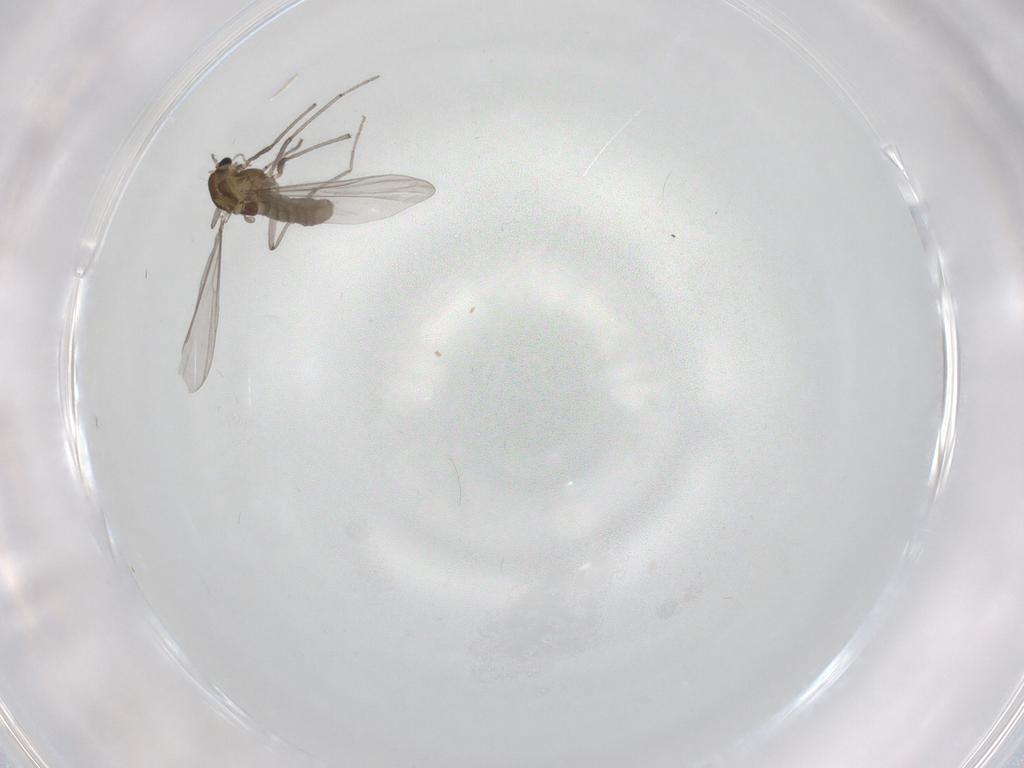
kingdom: Animalia
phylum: Arthropoda
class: Insecta
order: Diptera
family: Chironomidae
